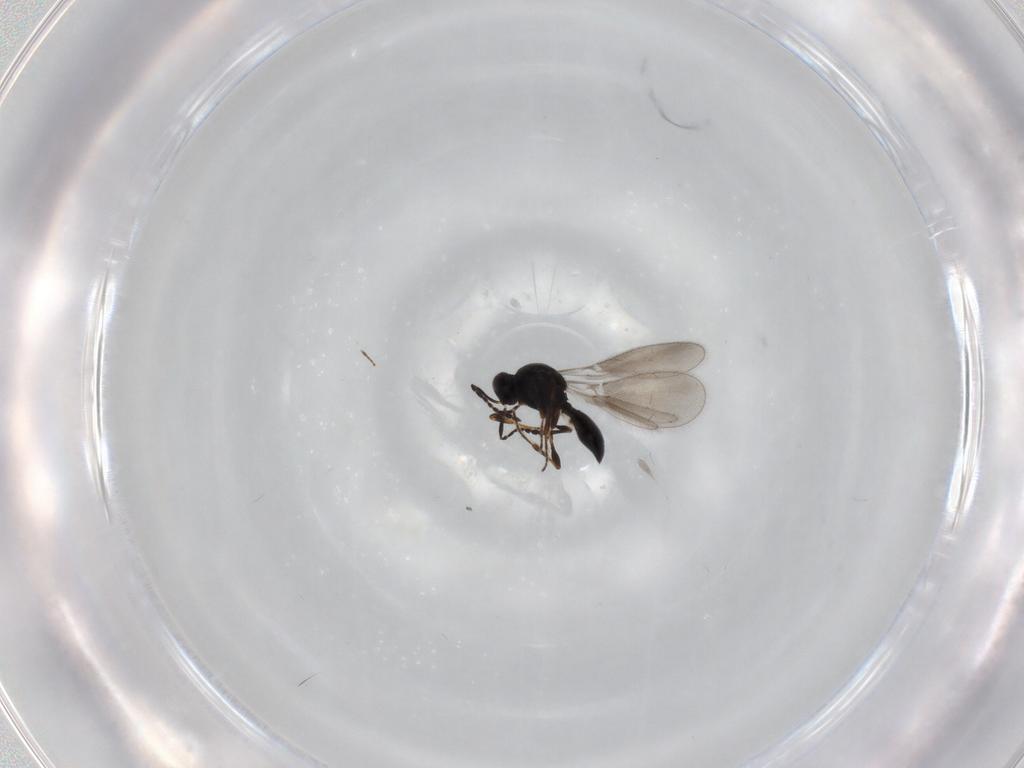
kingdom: Animalia
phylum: Arthropoda
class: Insecta
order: Hymenoptera
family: Platygastridae
